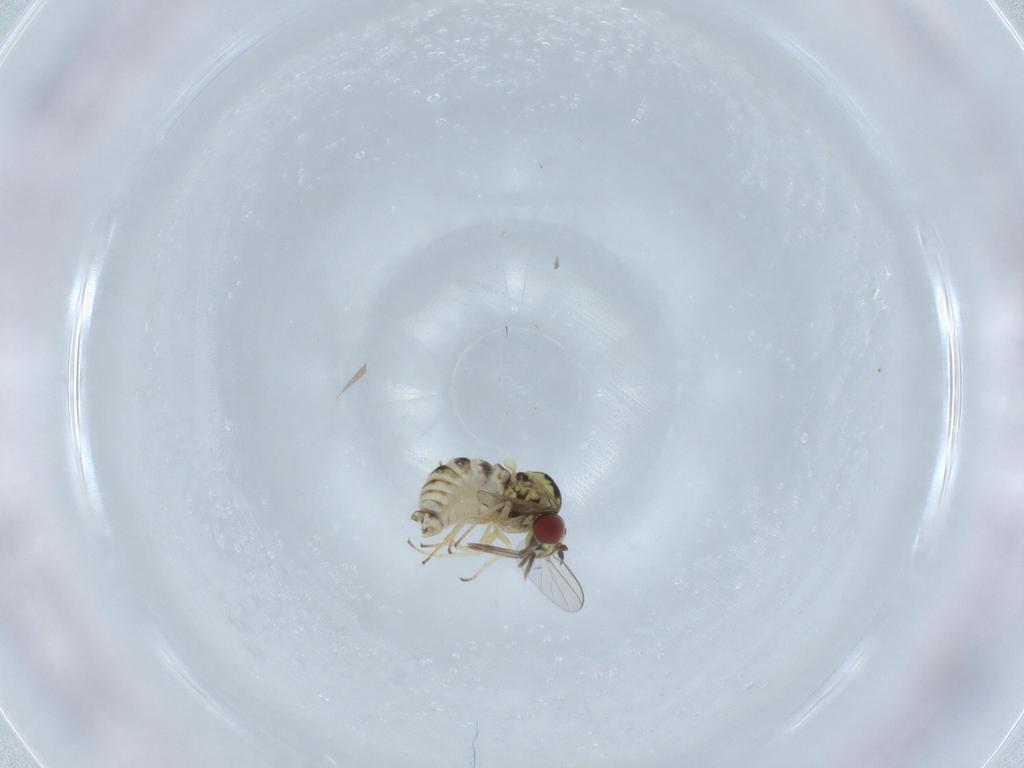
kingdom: Animalia
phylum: Arthropoda
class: Insecta
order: Diptera
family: Bombyliidae
